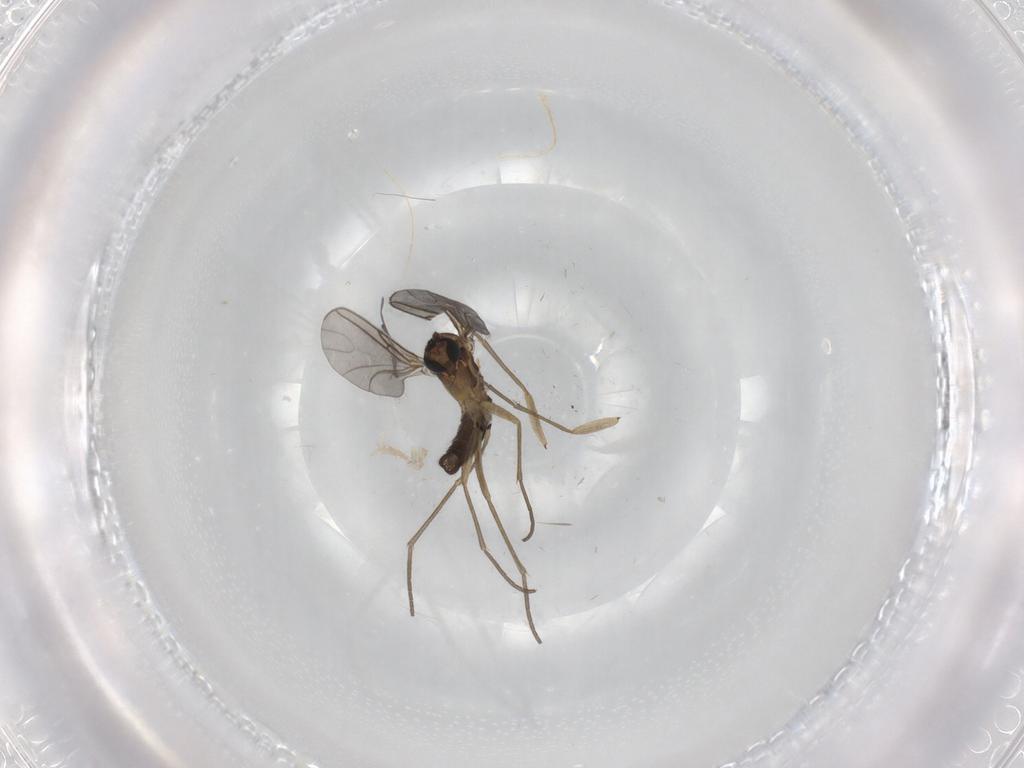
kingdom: Animalia
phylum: Arthropoda
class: Insecta
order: Diptera
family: Sciaridae
